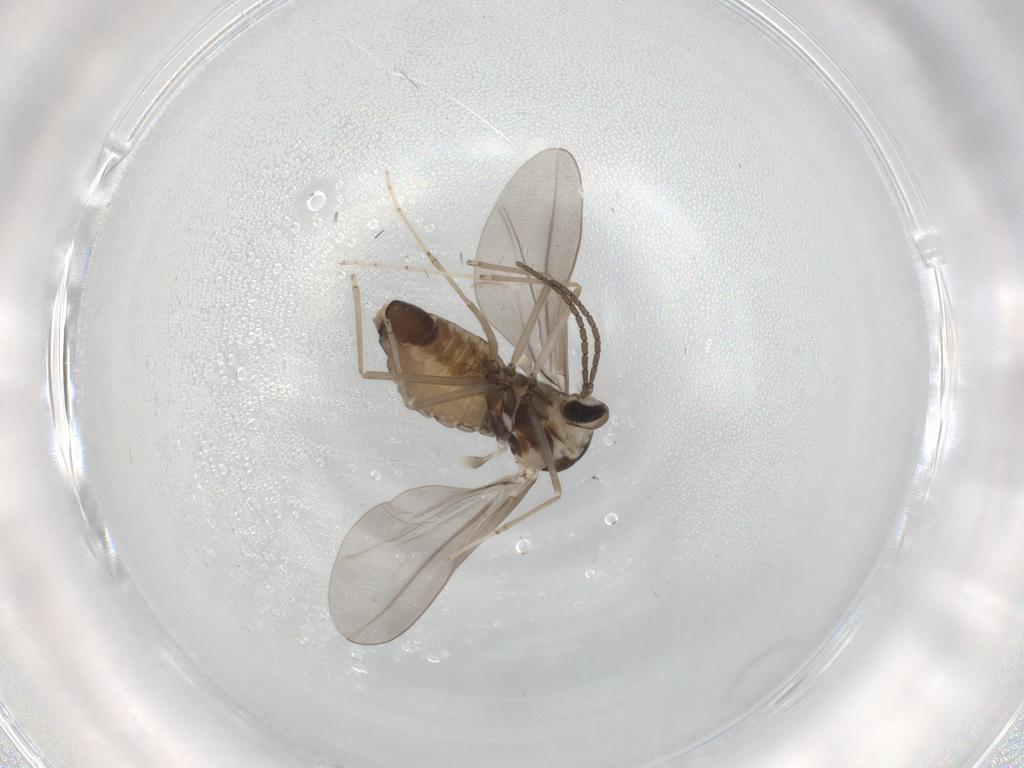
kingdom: Animalia
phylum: Arthropoda
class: Insecta
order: Diptera
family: Cecidomyiidae
